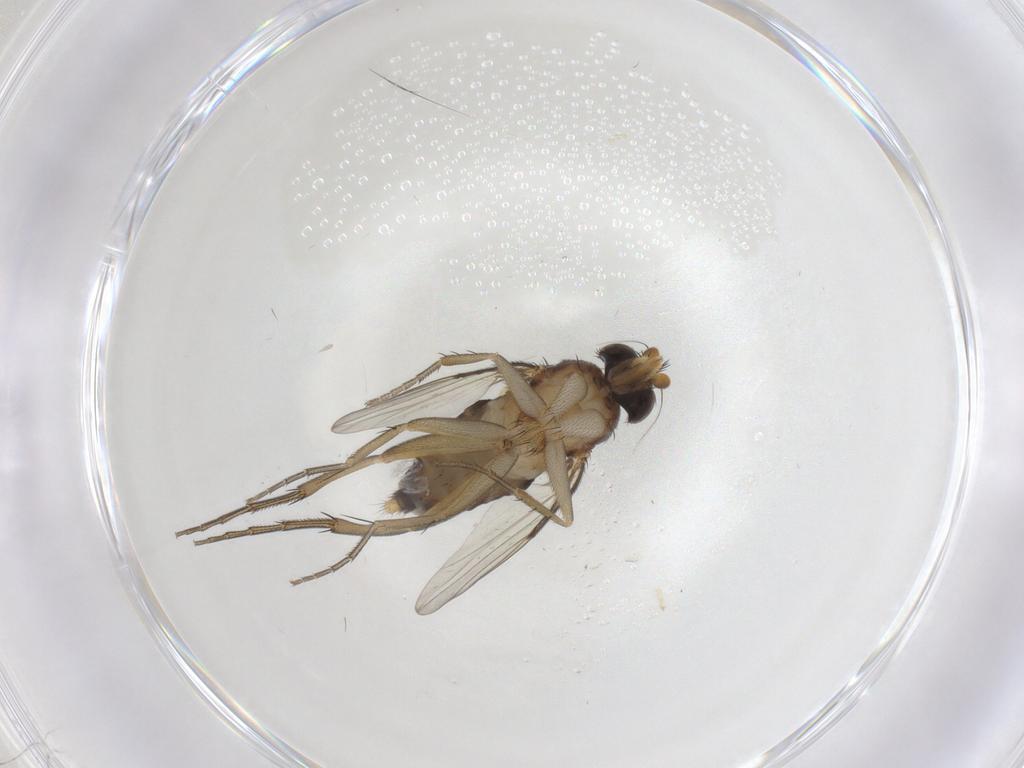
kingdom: Animalia
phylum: Arthropoda
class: Insecta
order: Diptera
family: Phoridae
